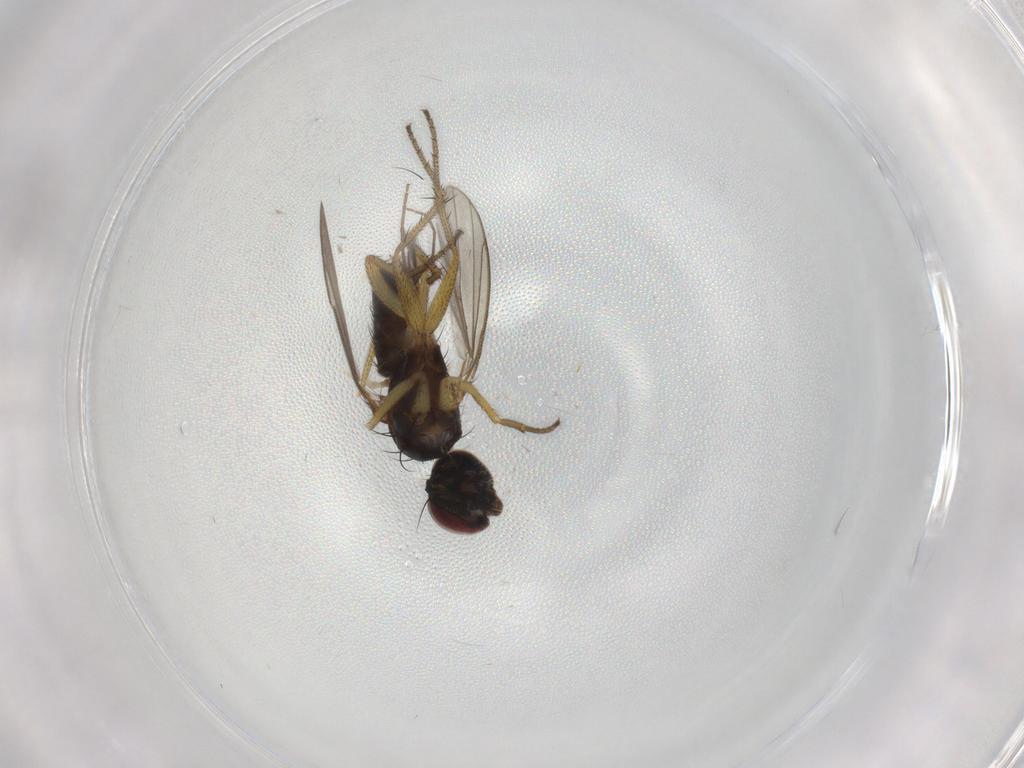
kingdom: Animalia
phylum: Arthropoda
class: Insecta
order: Diptera
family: Dolichopodidae
